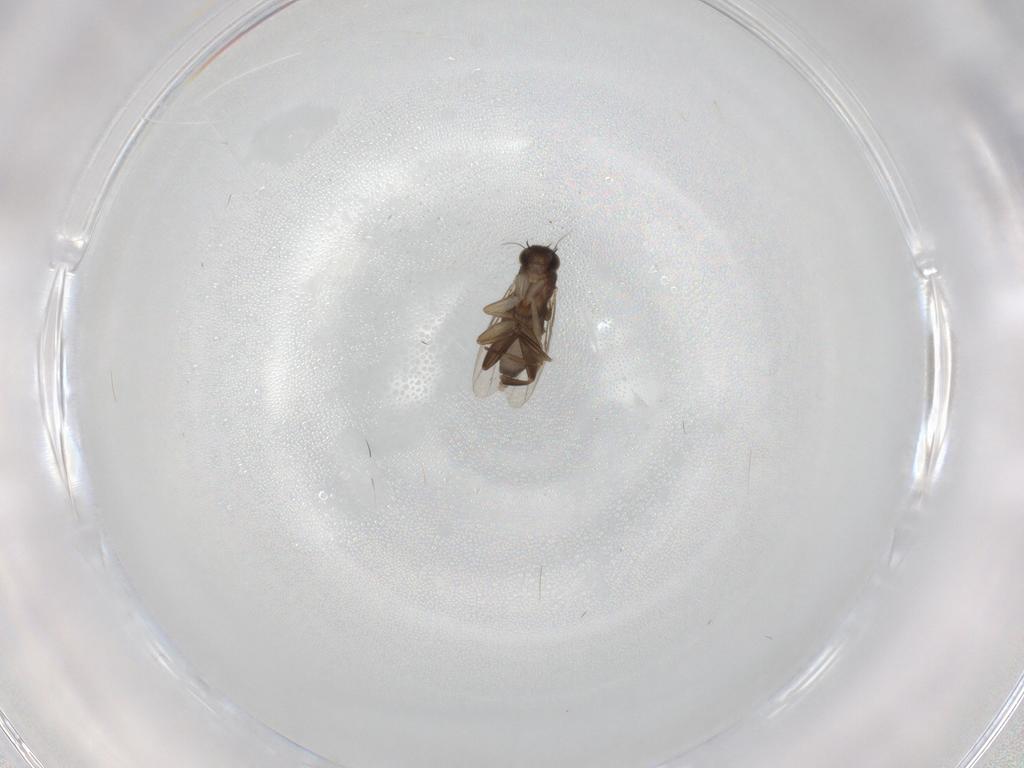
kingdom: Animalia
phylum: Arthropoda
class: Insecta
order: Diptera
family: Phoridae
